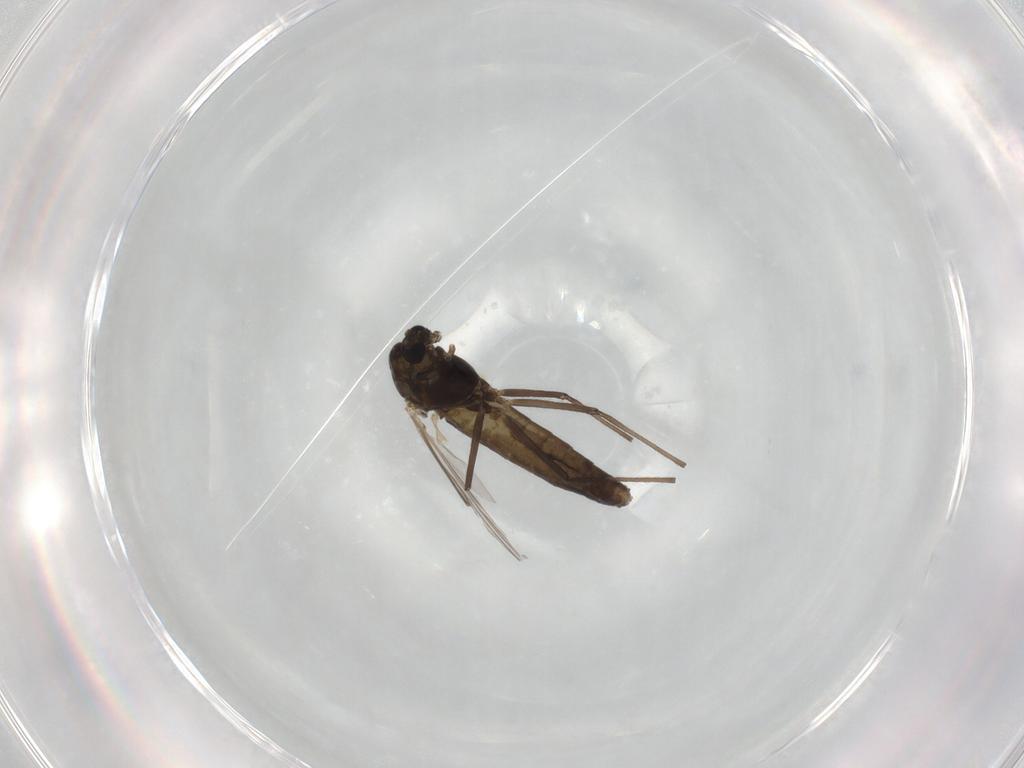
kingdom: Animalia
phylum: Arthropoda
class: Insecta
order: Diptera
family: Chironomidae
